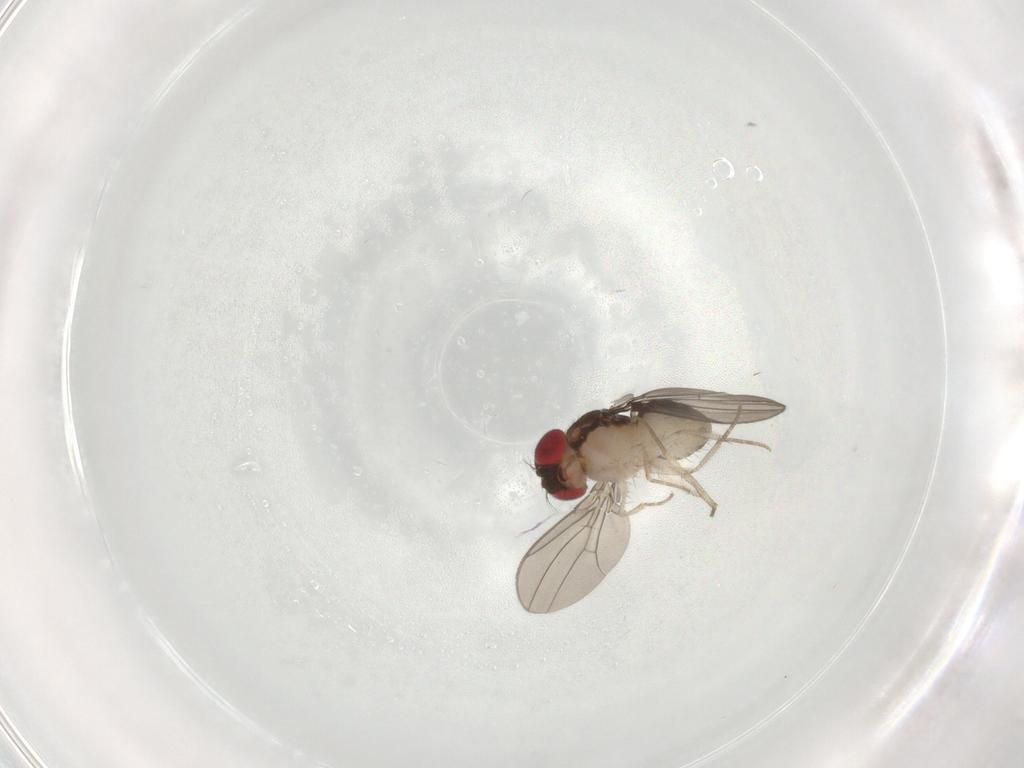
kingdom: Animalia
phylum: Arthropoda
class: Insecta
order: Diptera
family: Drosophilidae
